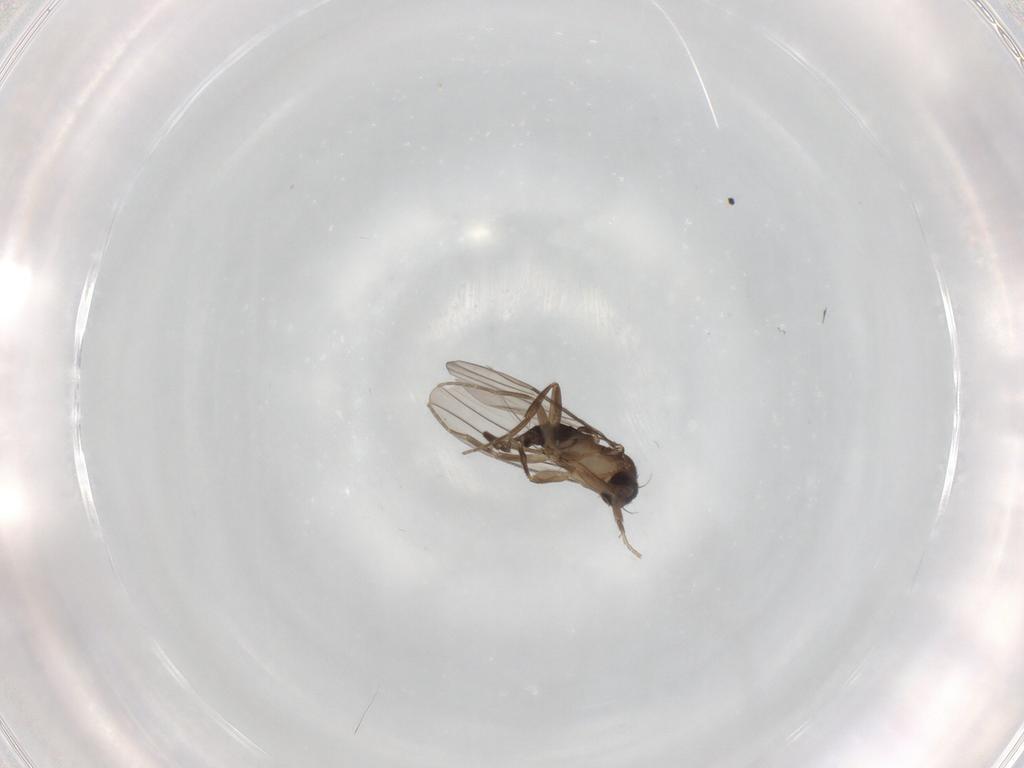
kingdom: Animalia
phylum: Arthropoda
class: Insecta
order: Diptera
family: Phoridae
